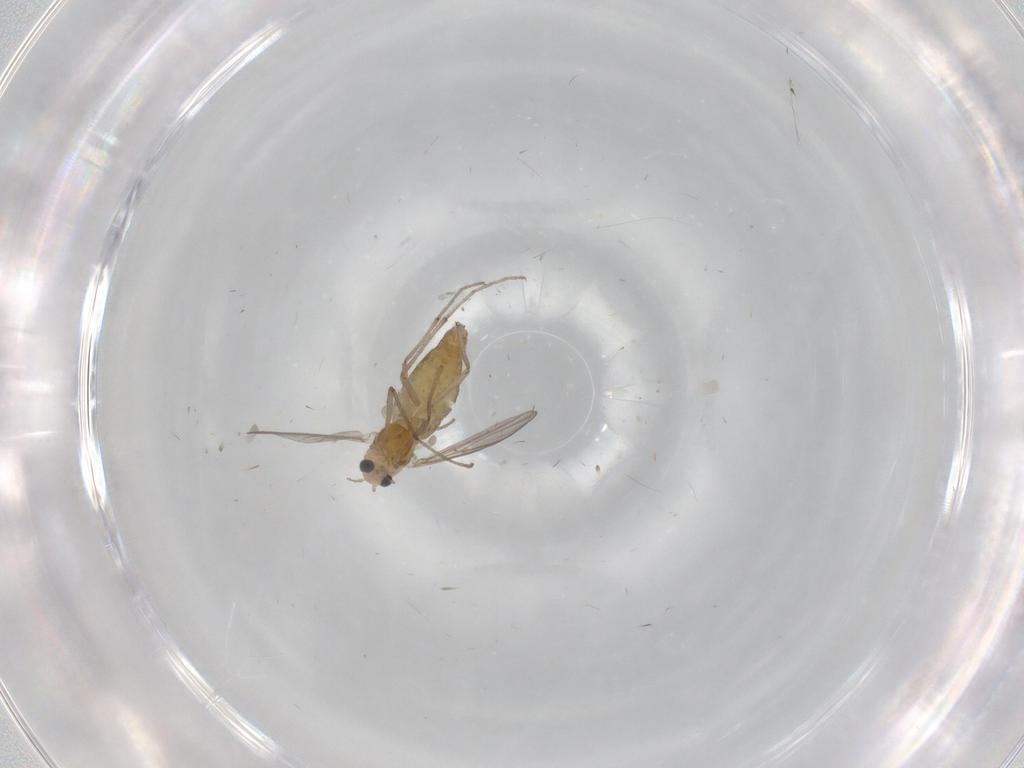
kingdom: Animalia
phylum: Arthropoda
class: Insecta
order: Diptera
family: Chironomidae
